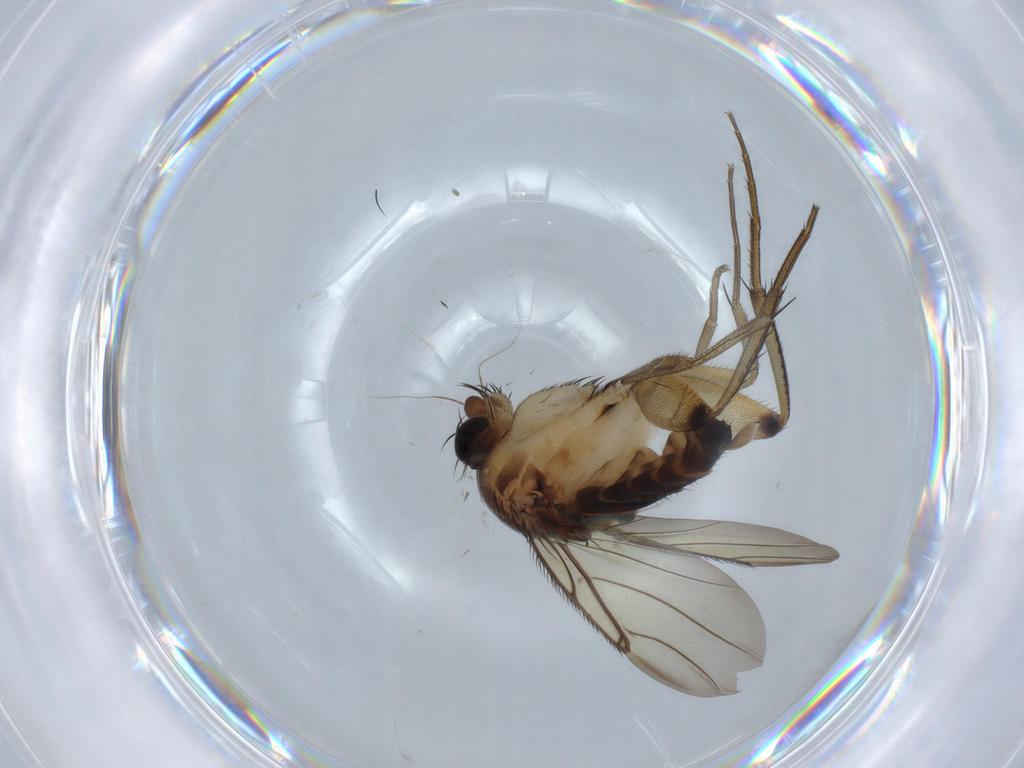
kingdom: Animalia
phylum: Arthropoda
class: Insecta
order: Diptera
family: Phoridae
